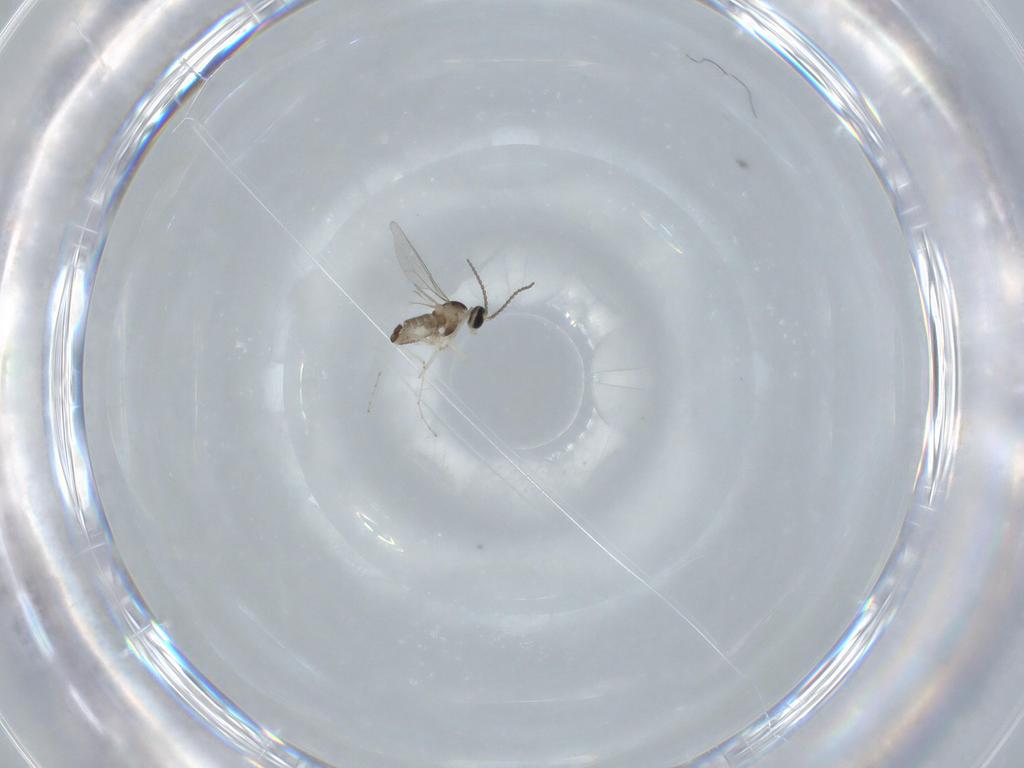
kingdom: Animalia
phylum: Arthropoda
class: Insecta
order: Diptera
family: Cecidomyiidae
